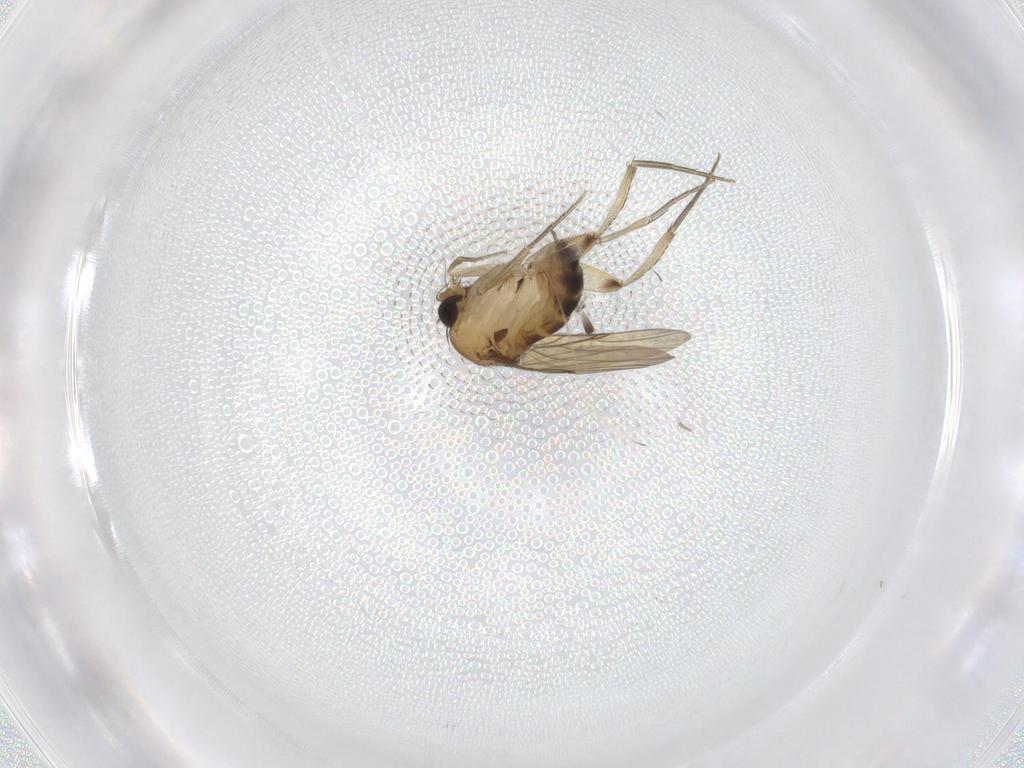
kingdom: Animalia
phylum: Arthropoda
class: Insecta
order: Diptera
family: Phoridae
